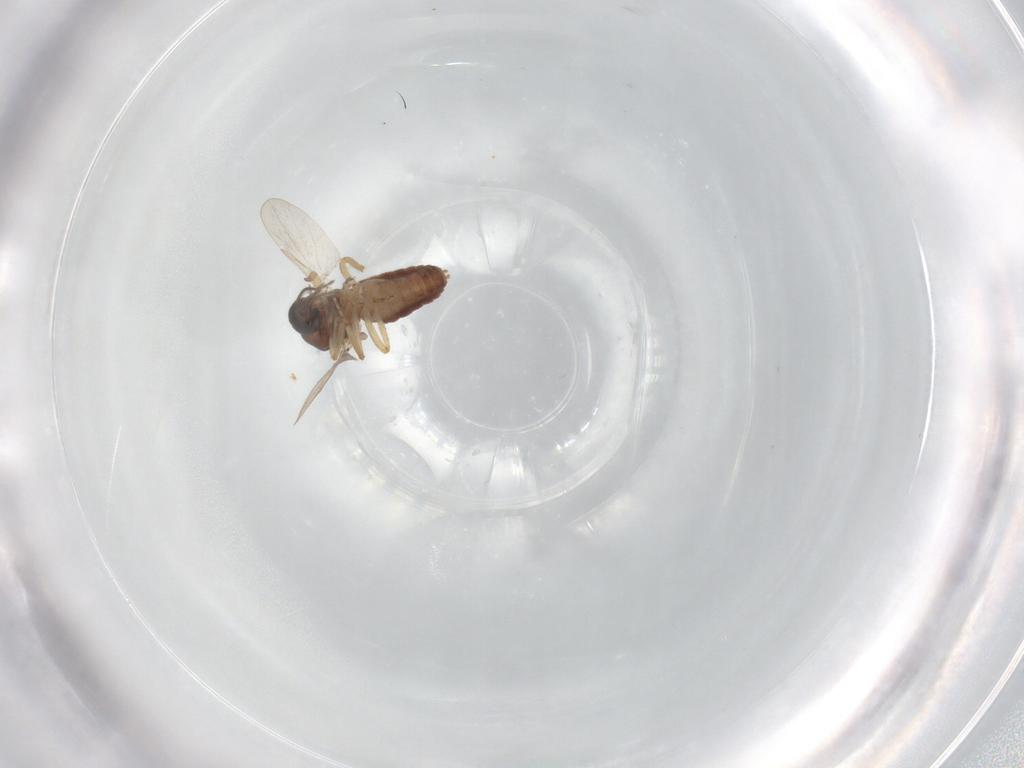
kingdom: Animalia
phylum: Arthropoda
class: Insecta
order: Diptera
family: Ceratopogonidae
